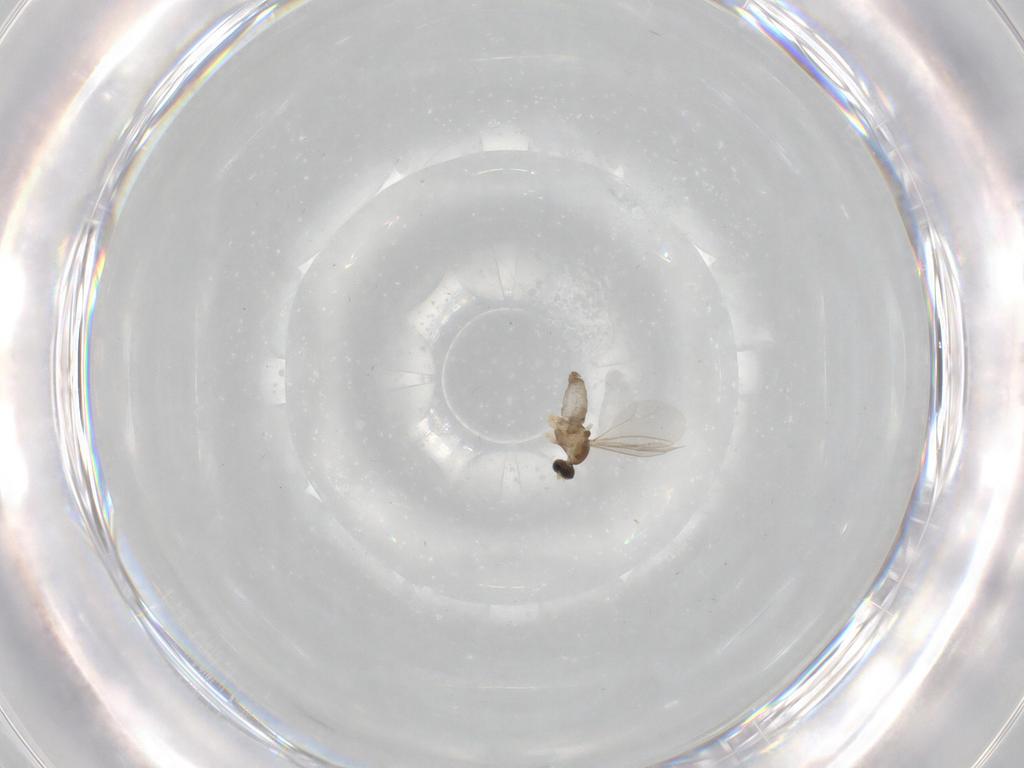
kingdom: Animalia
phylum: Arthropoda
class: Insecta
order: Diptera
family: Cecidomyiidae
